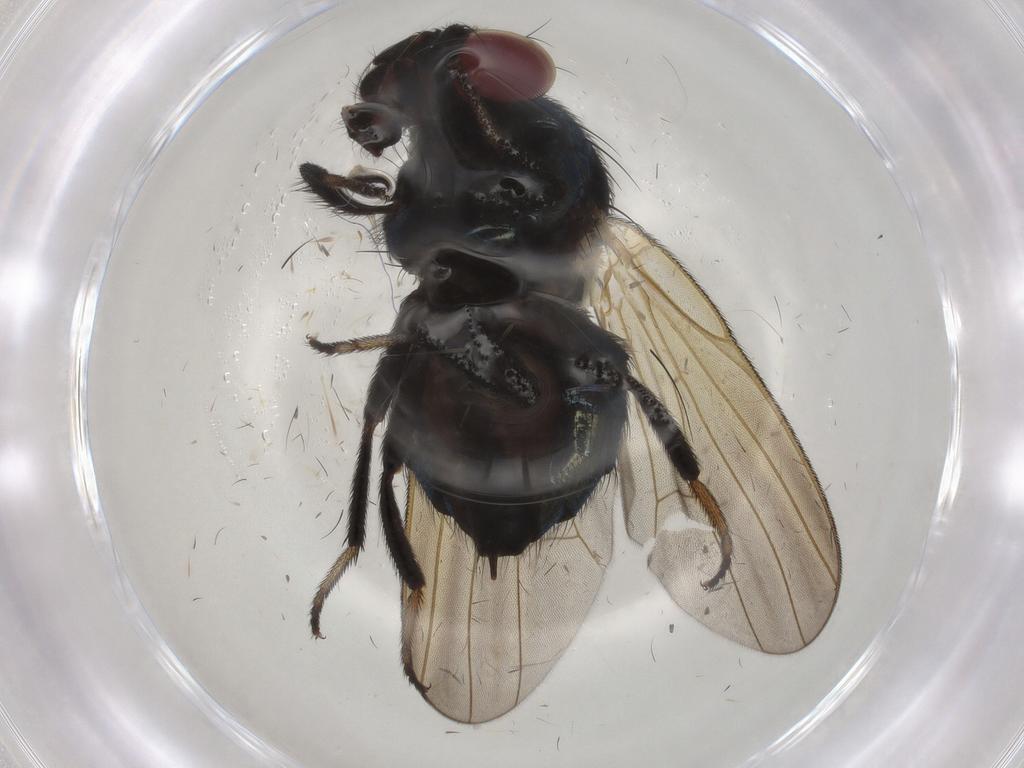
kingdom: Animalia
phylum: Arthropoda
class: Insecta
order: Diptera
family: Lonchaeidae
